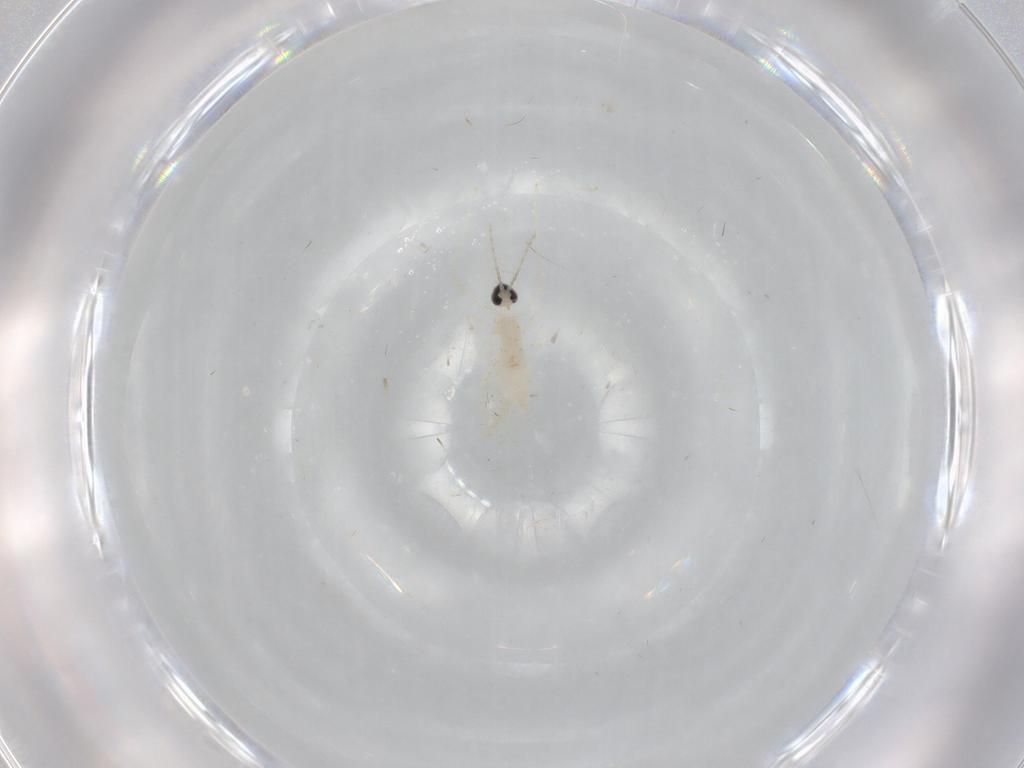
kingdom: Animalia
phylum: Arthropoda
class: Insecta
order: Diptera
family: Cecidomyiidae
